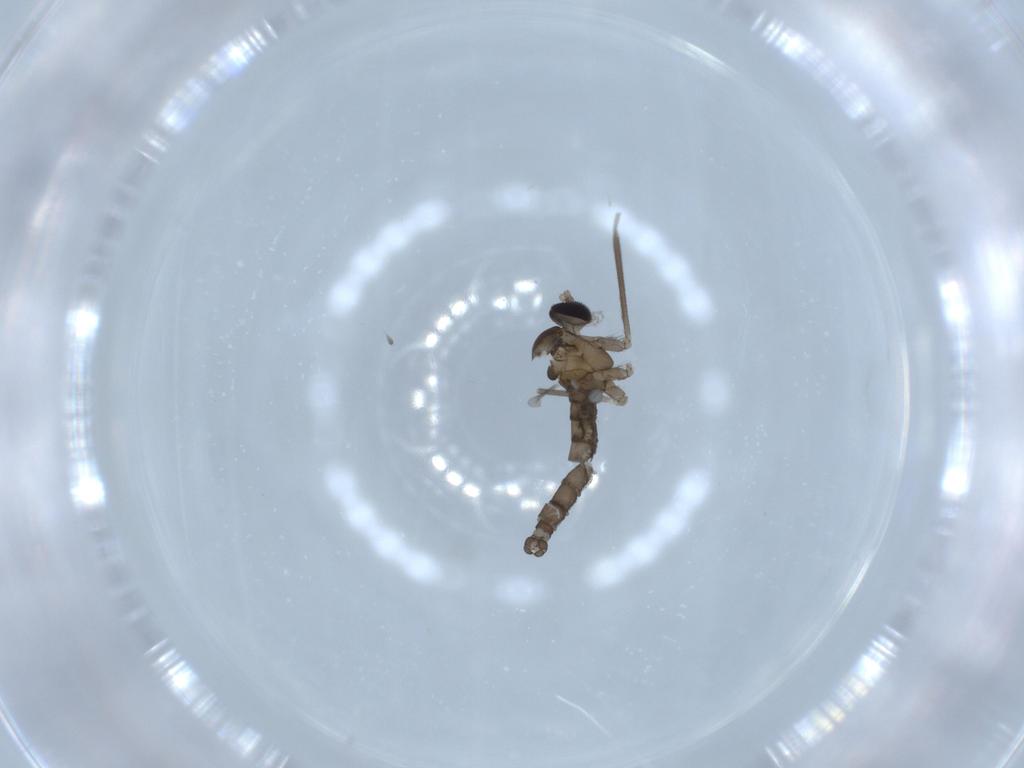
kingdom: Animalia
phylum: Arthropoda
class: Insecta
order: Diptera
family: Cecidomyiidae
